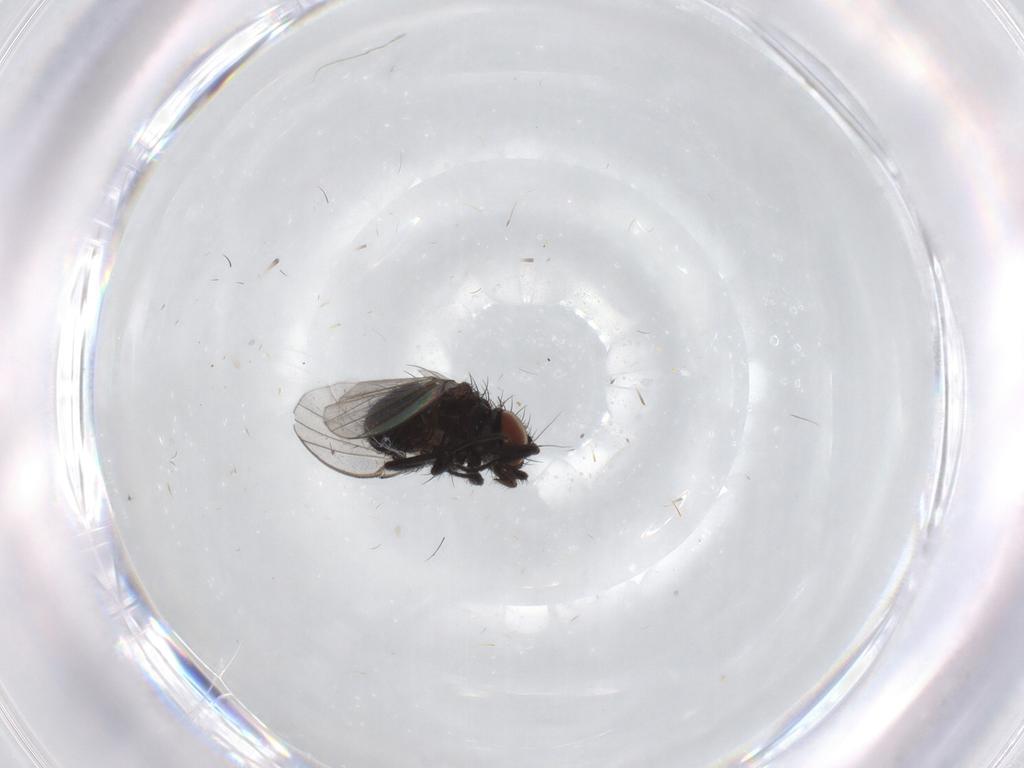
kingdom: Animalia
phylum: Arthropoda
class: Insecta
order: Diptera
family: Milichiidae
